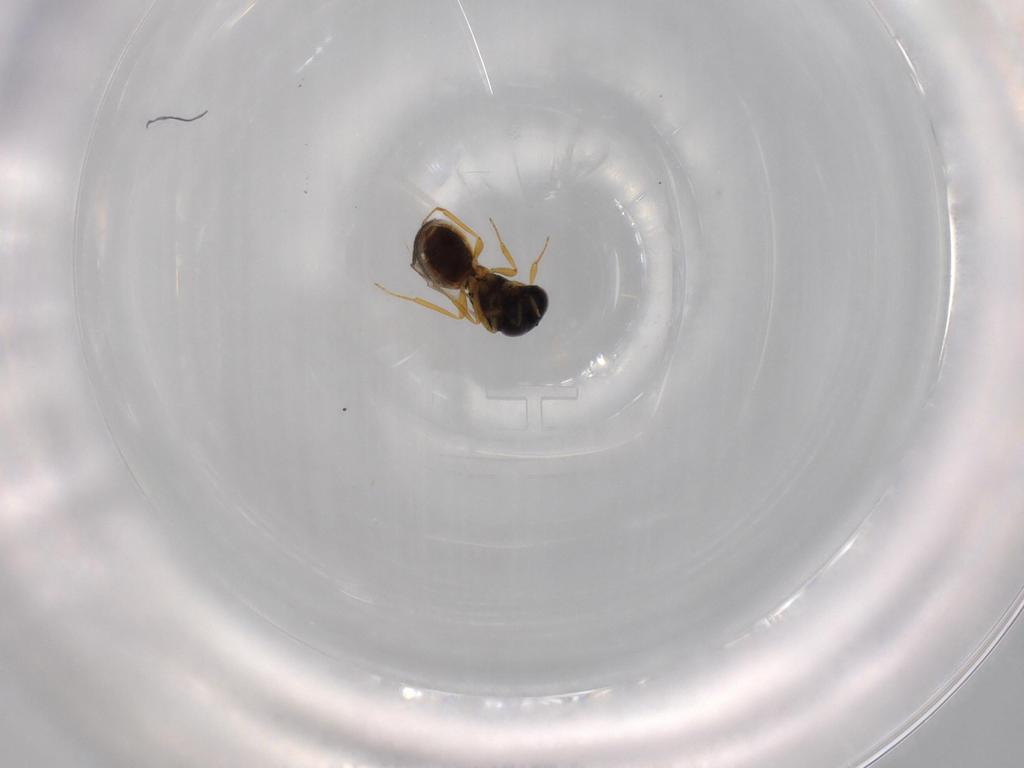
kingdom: Animalia
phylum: Arthropoda
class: Insecta
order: Hymenoptera
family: Scelionidae
